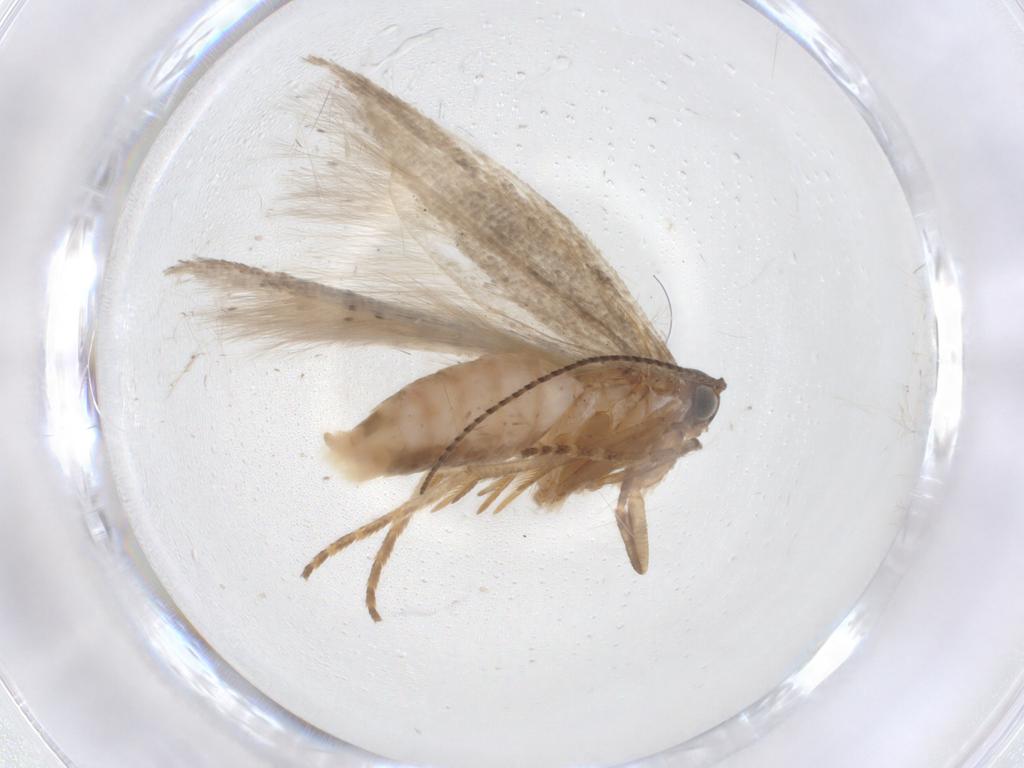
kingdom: Animalia
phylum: Arthropoda
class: Insecta
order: Lepidoptera
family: Gelechiidae
